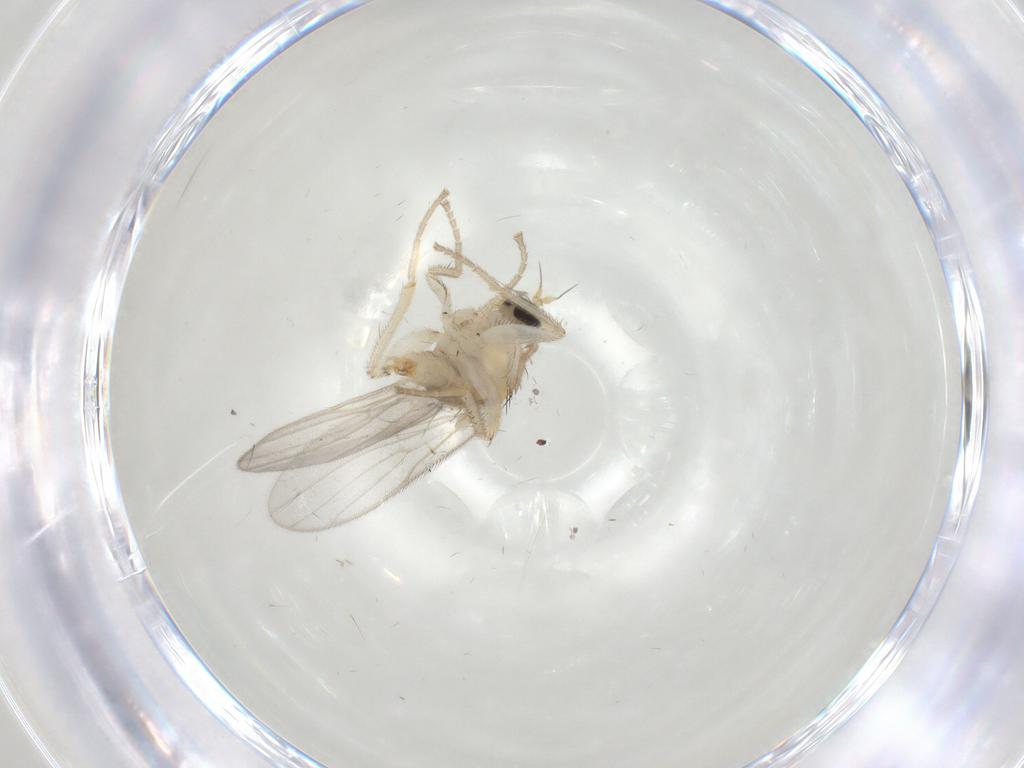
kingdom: Animalia
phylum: Arthropoda
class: Insecta
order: Diptera
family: Hybotidae
